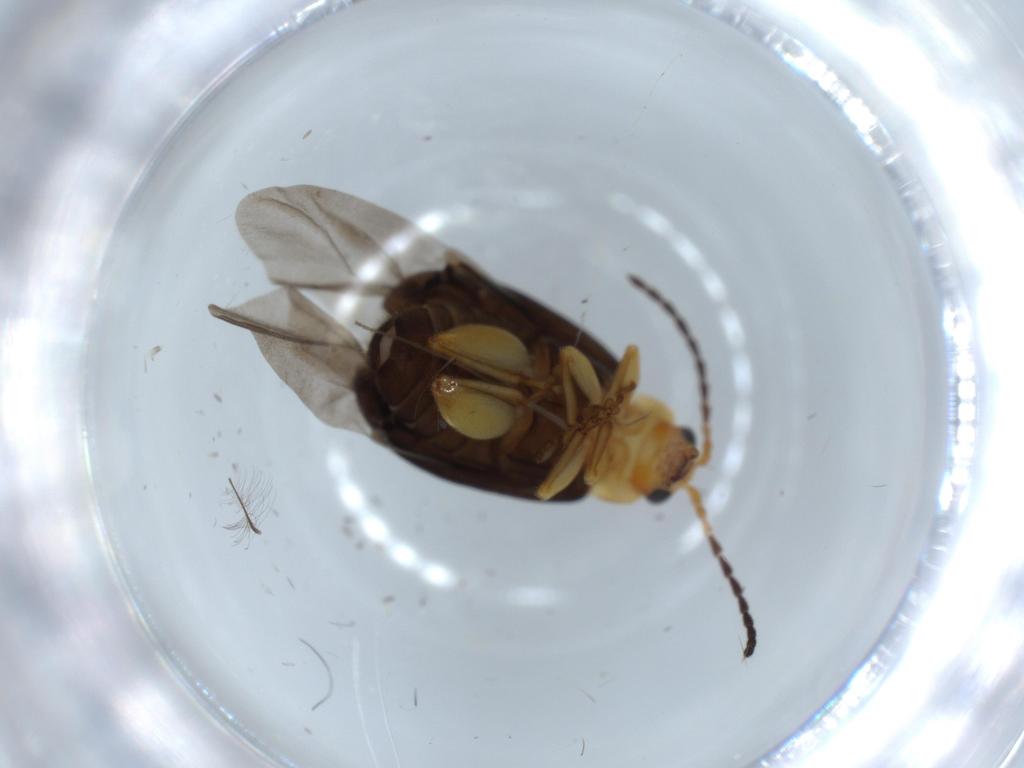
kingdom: Animalia
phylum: Arthropoda
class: Insecta
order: Coleoptera
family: Chrysomelidae
